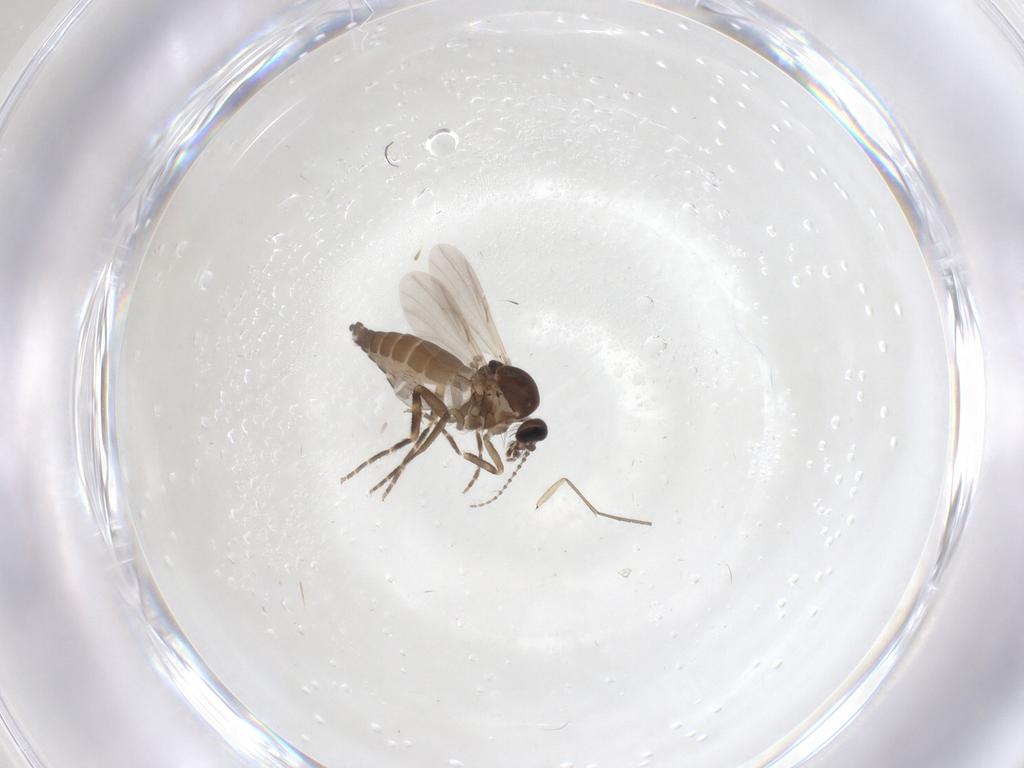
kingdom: Animalia
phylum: Arthropoda
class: Insecta
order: Diptera
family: Ceratopogonidae
